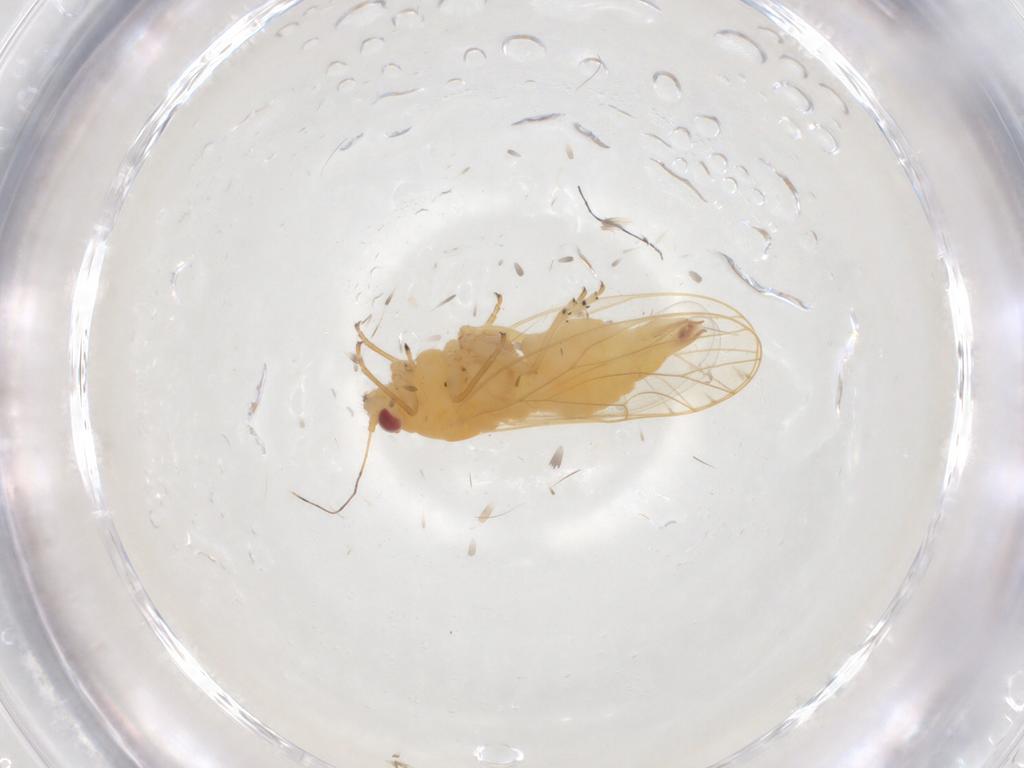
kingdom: Animalia
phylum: Arthropoda
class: Insecta
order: Hemiptera
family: Psyllidae
